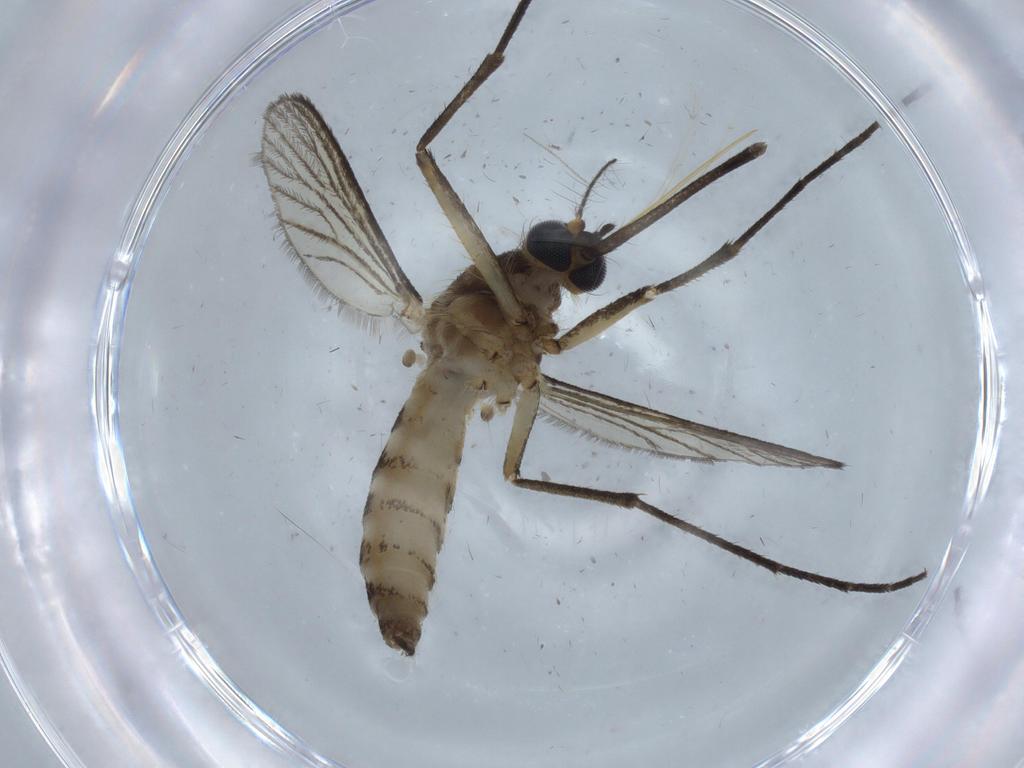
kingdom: Animalia
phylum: Arthropoda
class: Insecta
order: Diptera
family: Chironomidae
